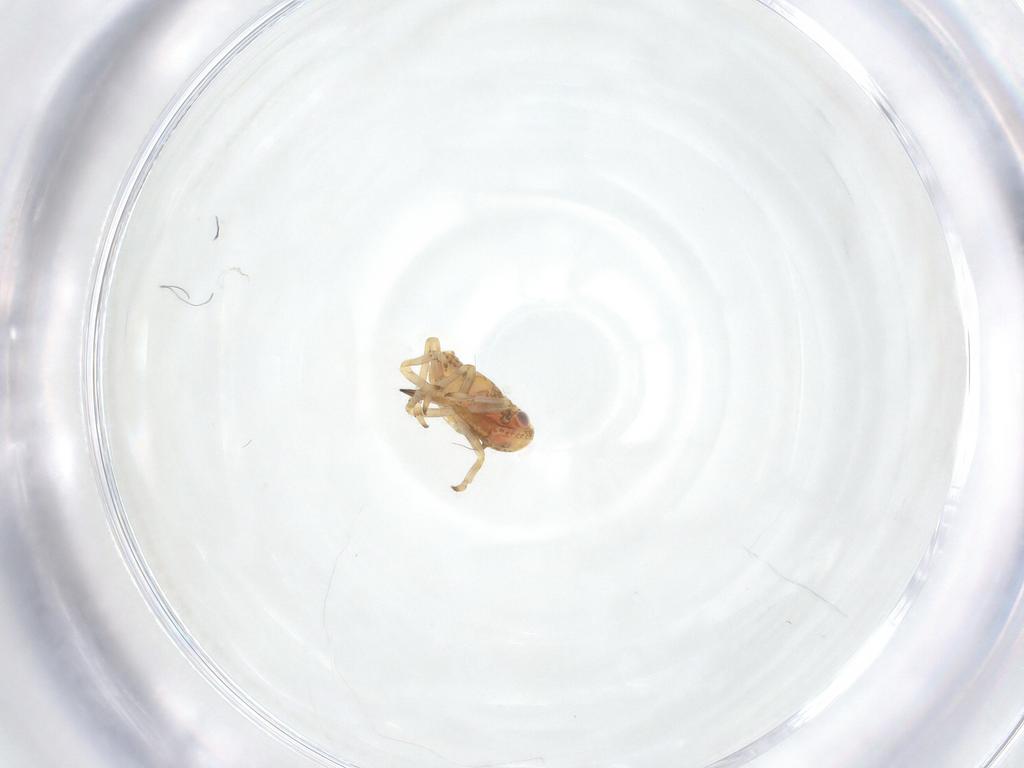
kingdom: Animalia
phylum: Arthropoda
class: Insecta
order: Hemiptera
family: Tropiduchidae
